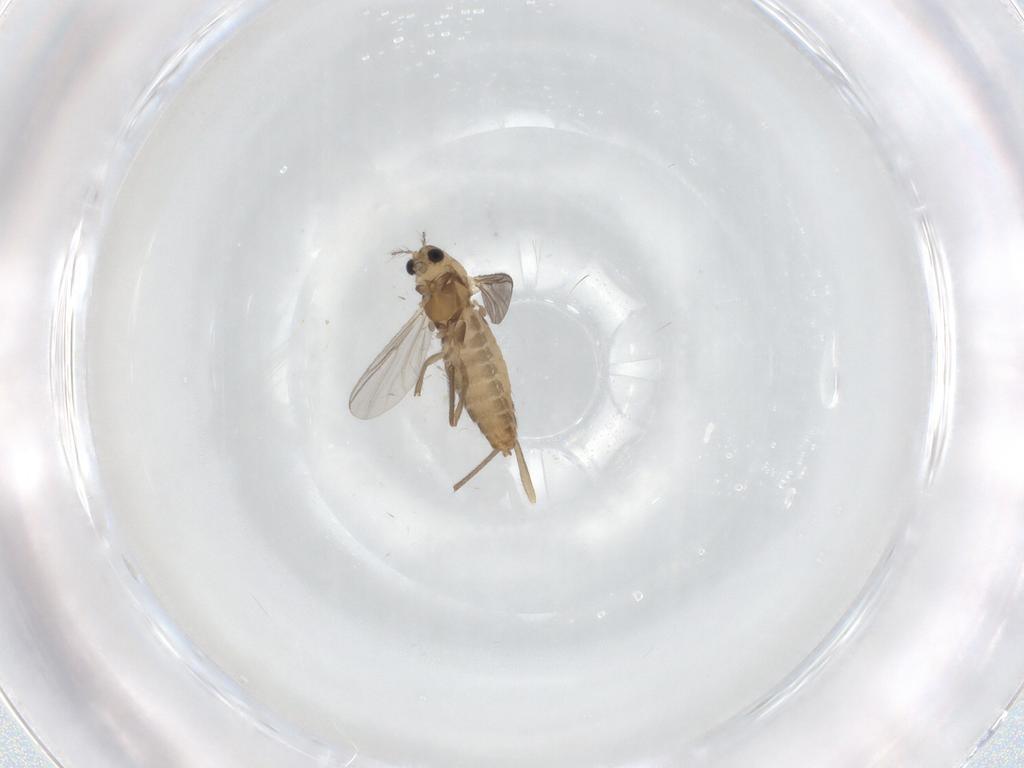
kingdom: Animalia
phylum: Arthropoda
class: Insecta
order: Diptera
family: Chironomidae
